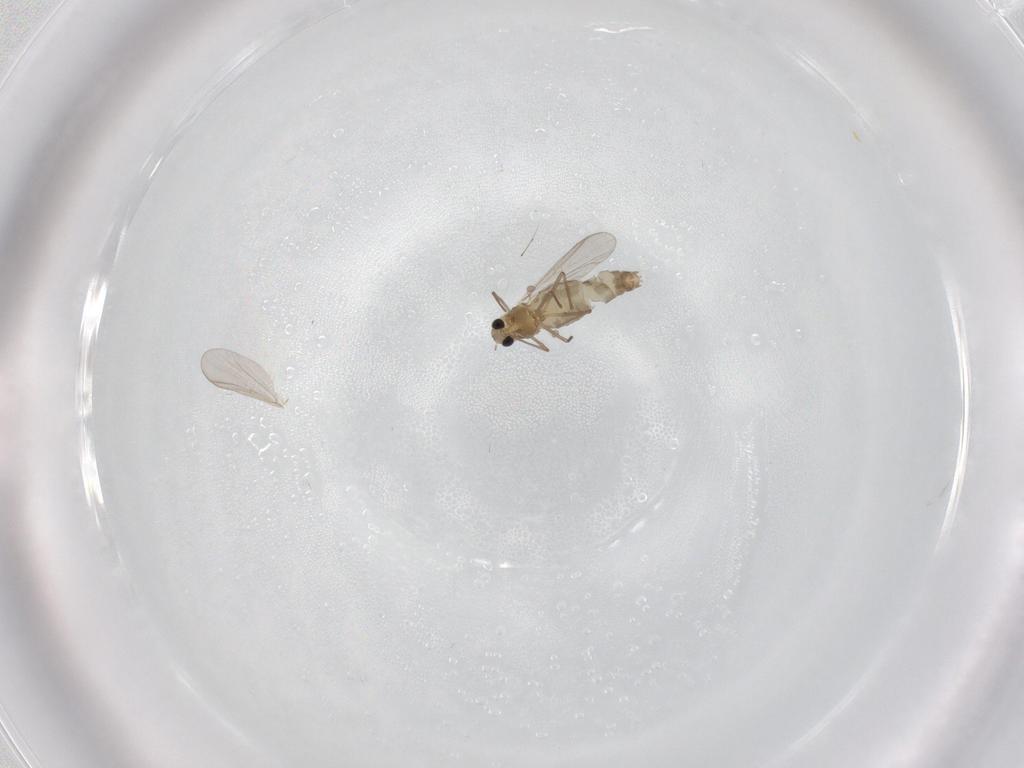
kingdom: Animalia
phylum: Arthropoda
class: Insecta
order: Diptera
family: Chironomidae
